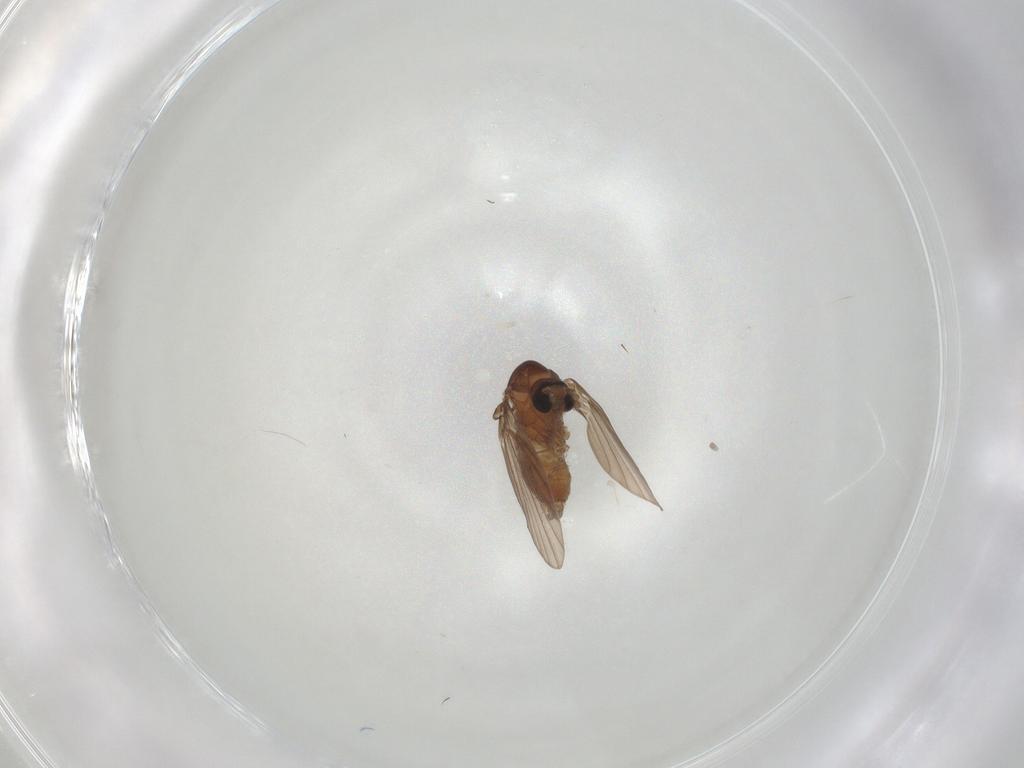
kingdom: Animalia
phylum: Arthropoda
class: Insecta
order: Diptera
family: Psychodidae
